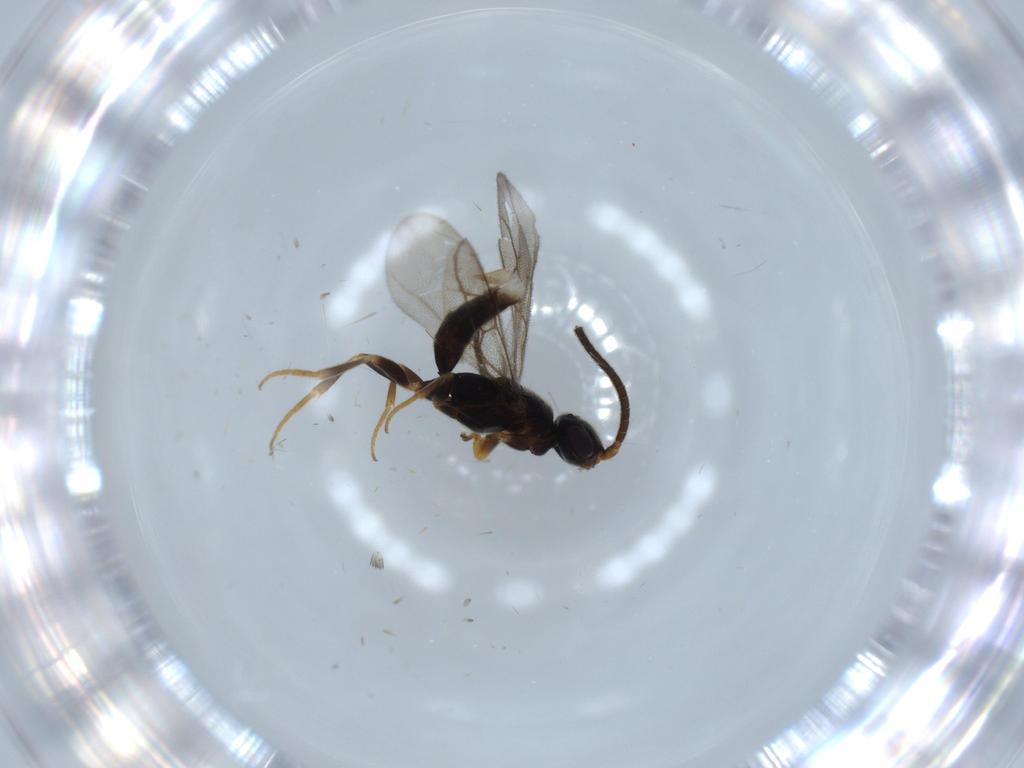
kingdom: Animalia
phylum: Arthropoda
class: Insecta
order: Hymenoptera
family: Sclerogibbidae
